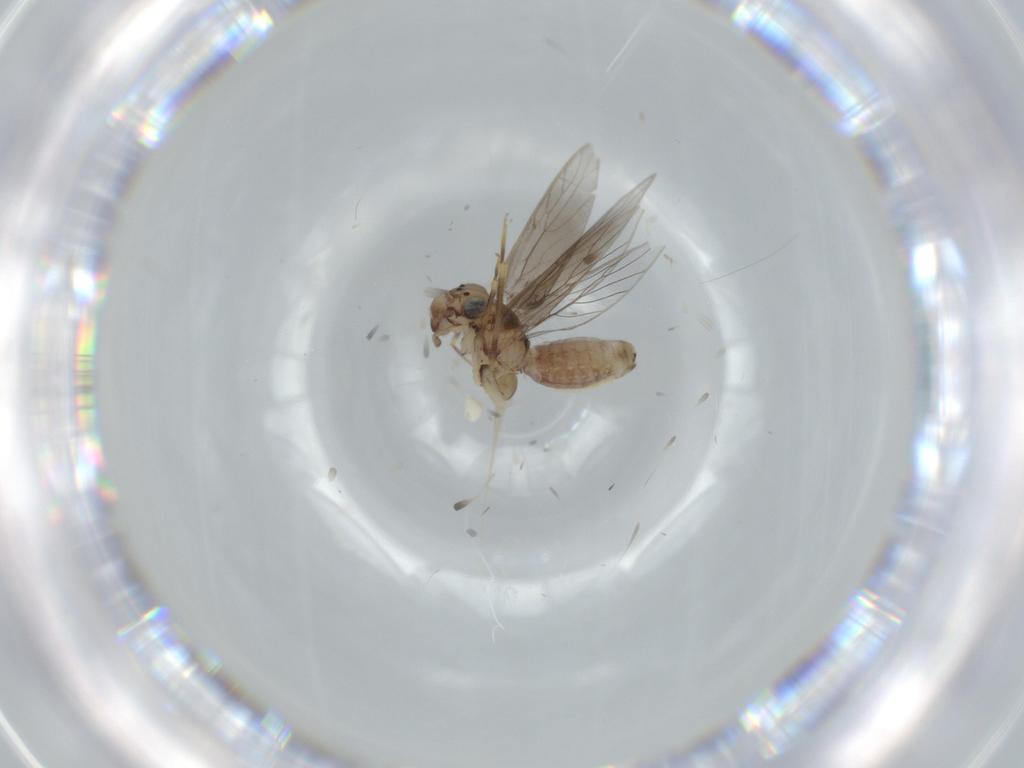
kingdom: Animalia
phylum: Arthropoda
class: Insecta
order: Psocodea
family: Lepidopsocidae
